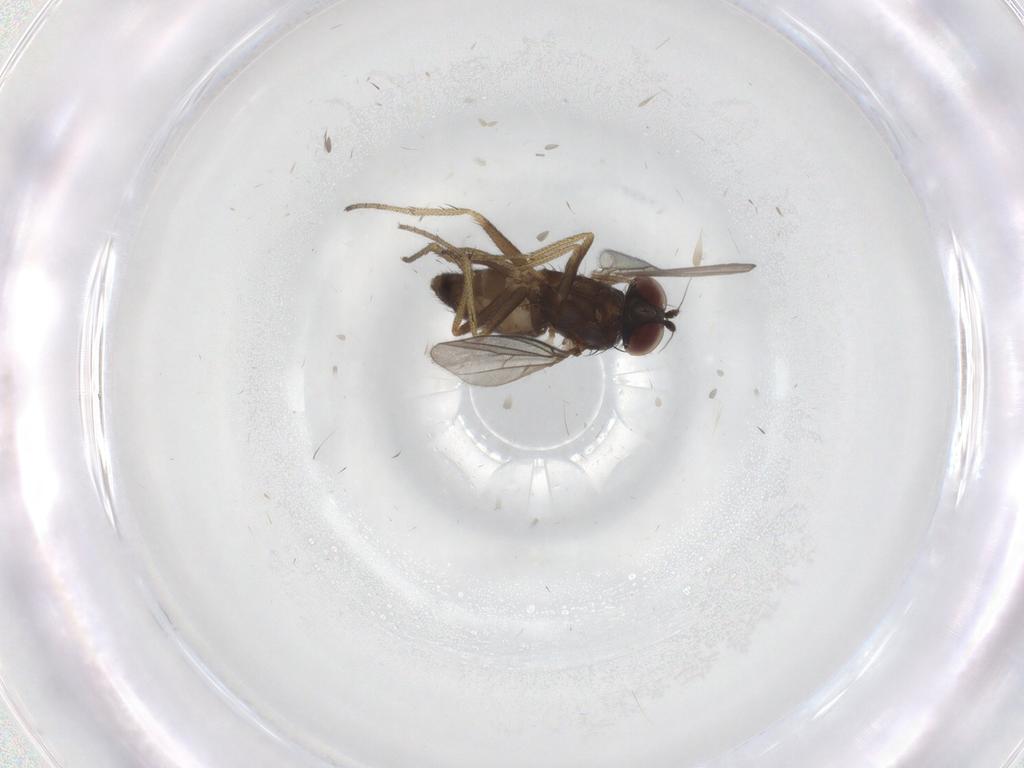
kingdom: Animalia
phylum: Arthropoda
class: Insecta
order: Diptera
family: Cecidomyiidae
